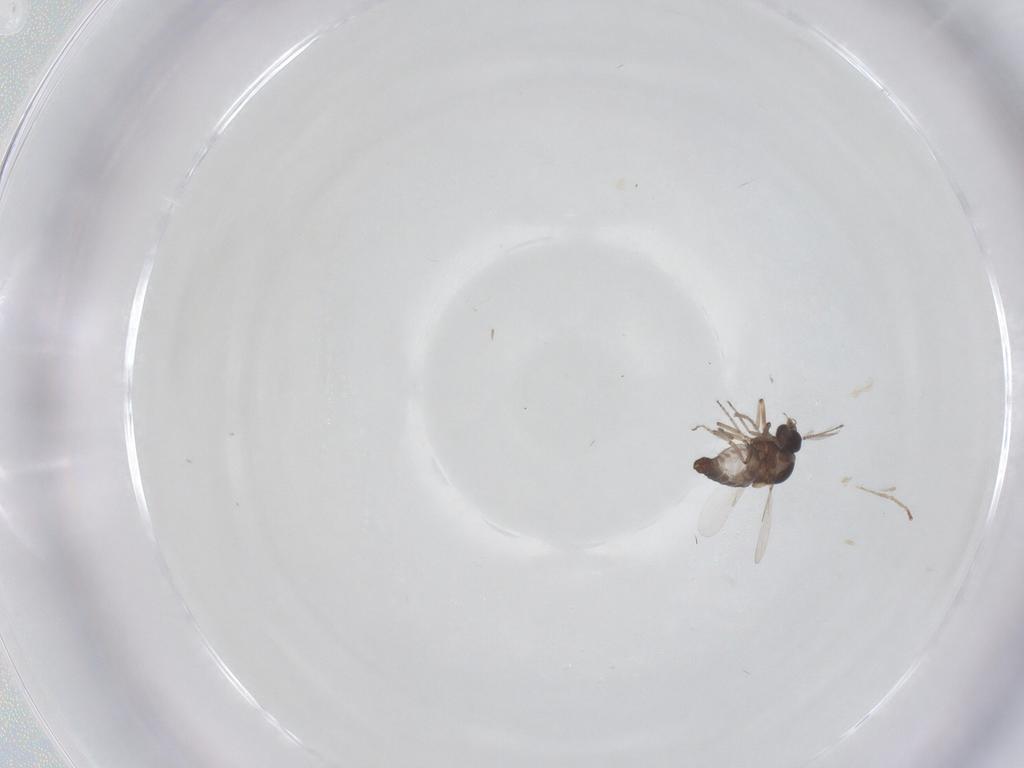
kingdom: Animalia
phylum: Arthropoda
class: Insecta
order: Diptera
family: Ceratopogonidae
